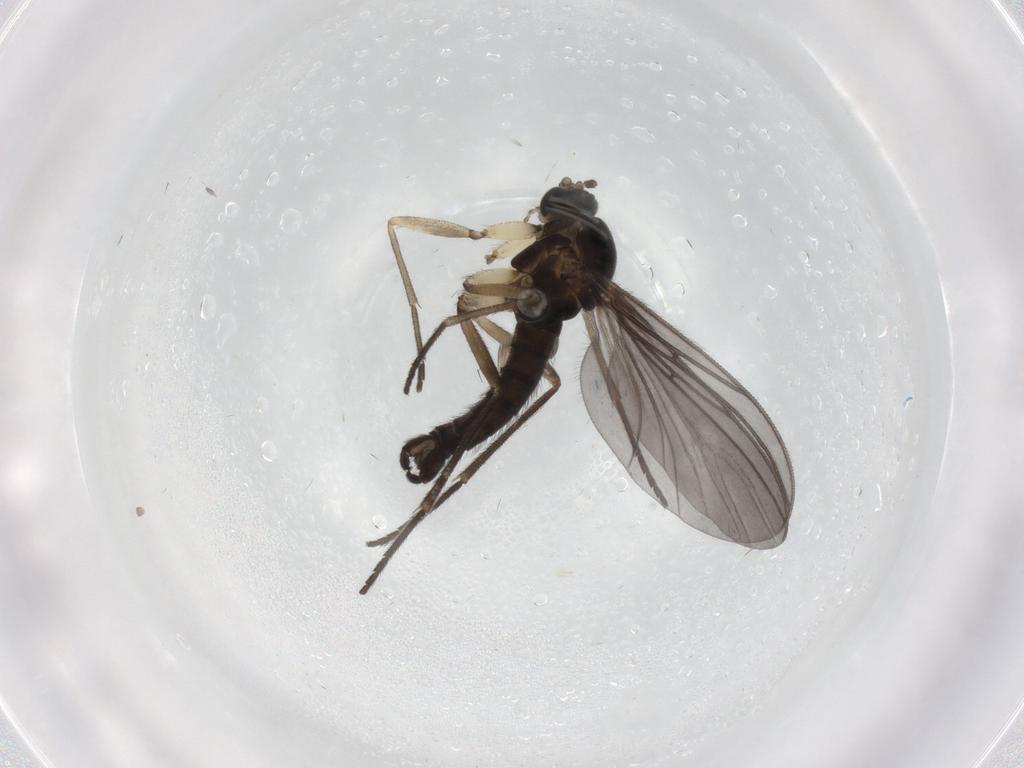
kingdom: Animalia
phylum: Arthropoda
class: Insecta
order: Diptera
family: Sciaridae
